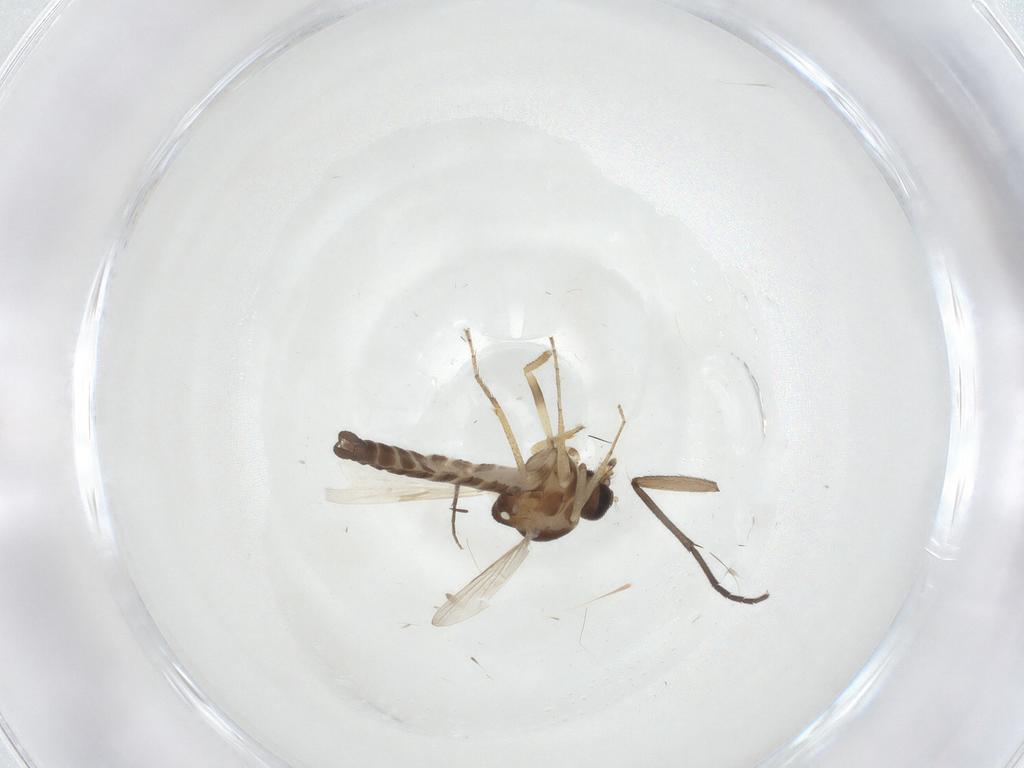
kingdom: Animalia
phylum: Arthropoda
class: Insecta
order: Diptera
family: Ceratopogonidae
